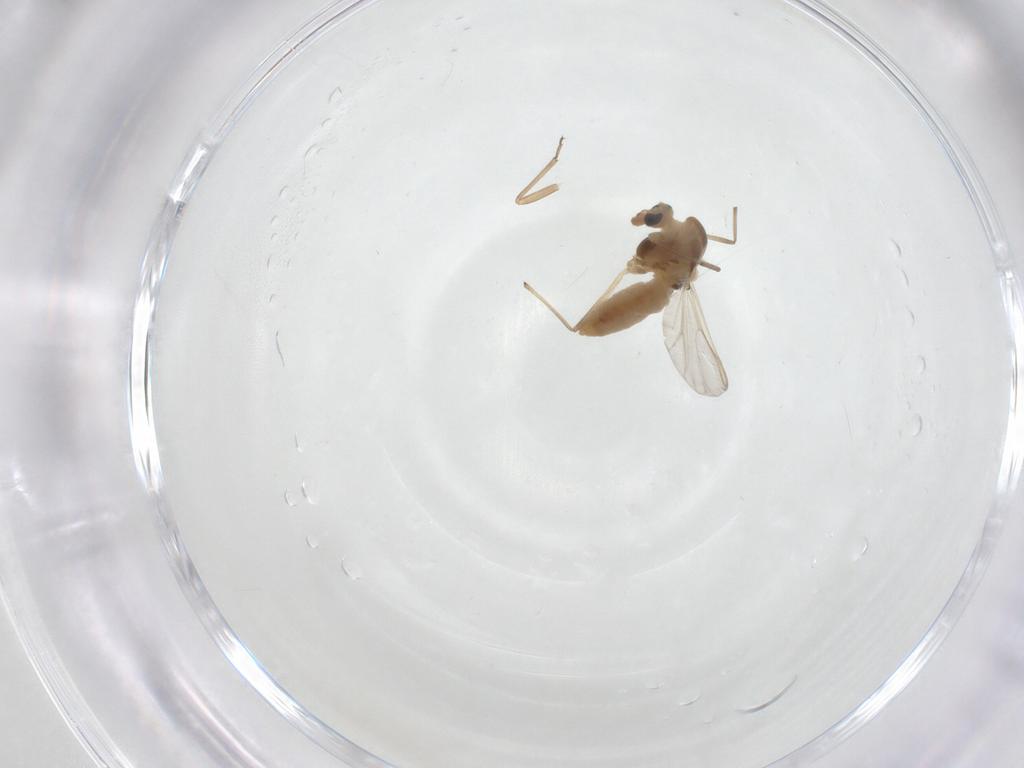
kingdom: Animalia
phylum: Arthropoda
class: Insecta
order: Diptera
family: Chironomidae
